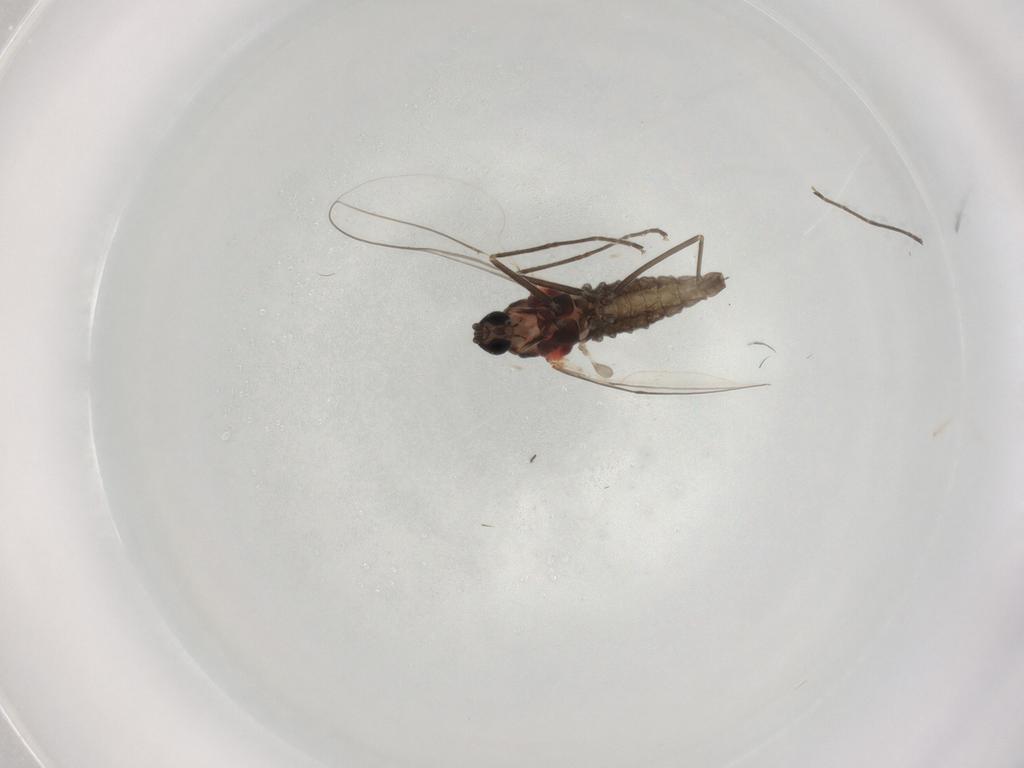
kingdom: Animalia
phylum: Arthropoda
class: Insecta
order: Diptera
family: Cecidomyiidae
